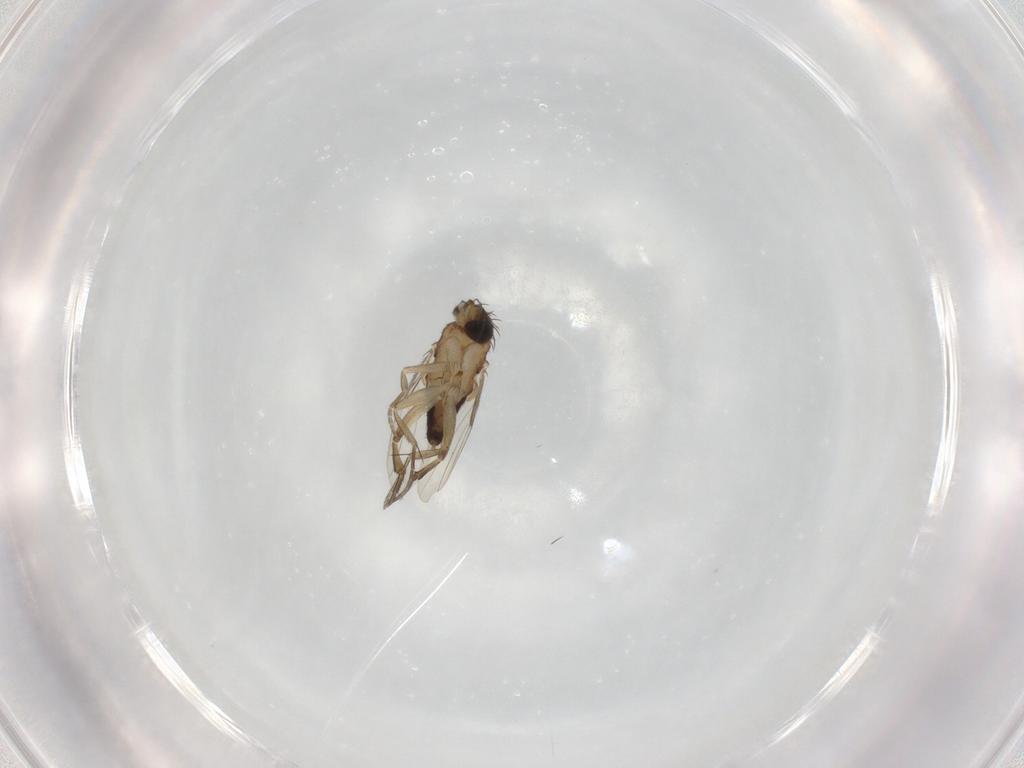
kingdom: Animalia
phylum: Arthropoda
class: Insecta
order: Diptera
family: Phoridae
